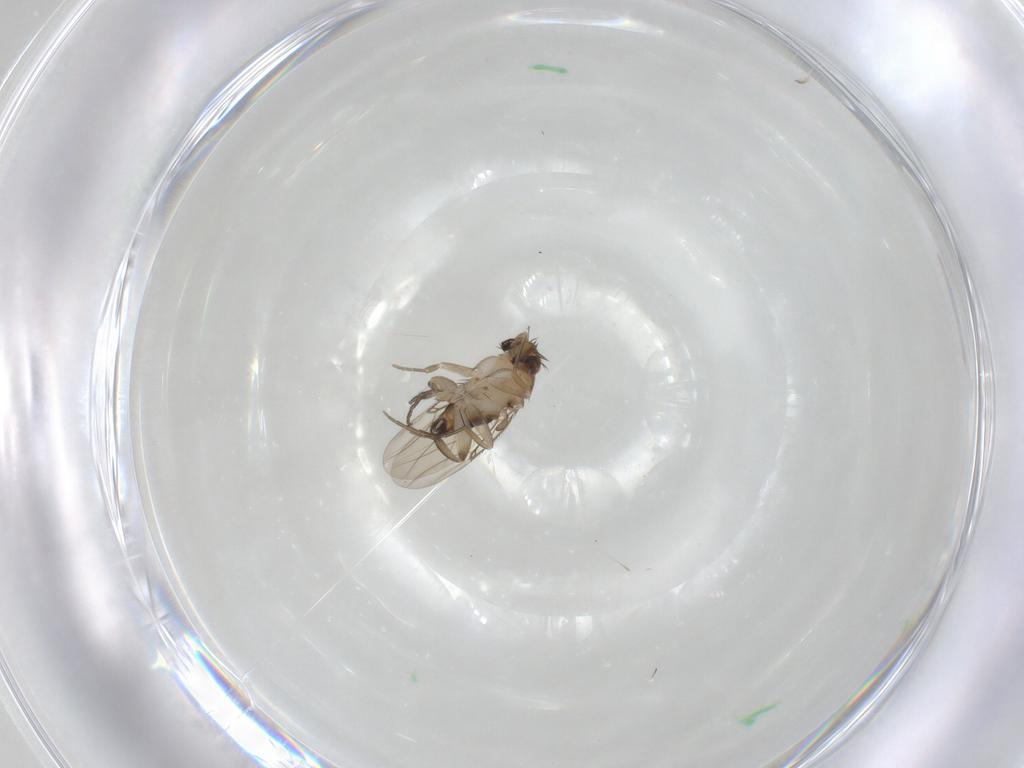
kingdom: Animalia
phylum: Arthropoda
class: Insecta
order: Diptera
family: Phoridae
